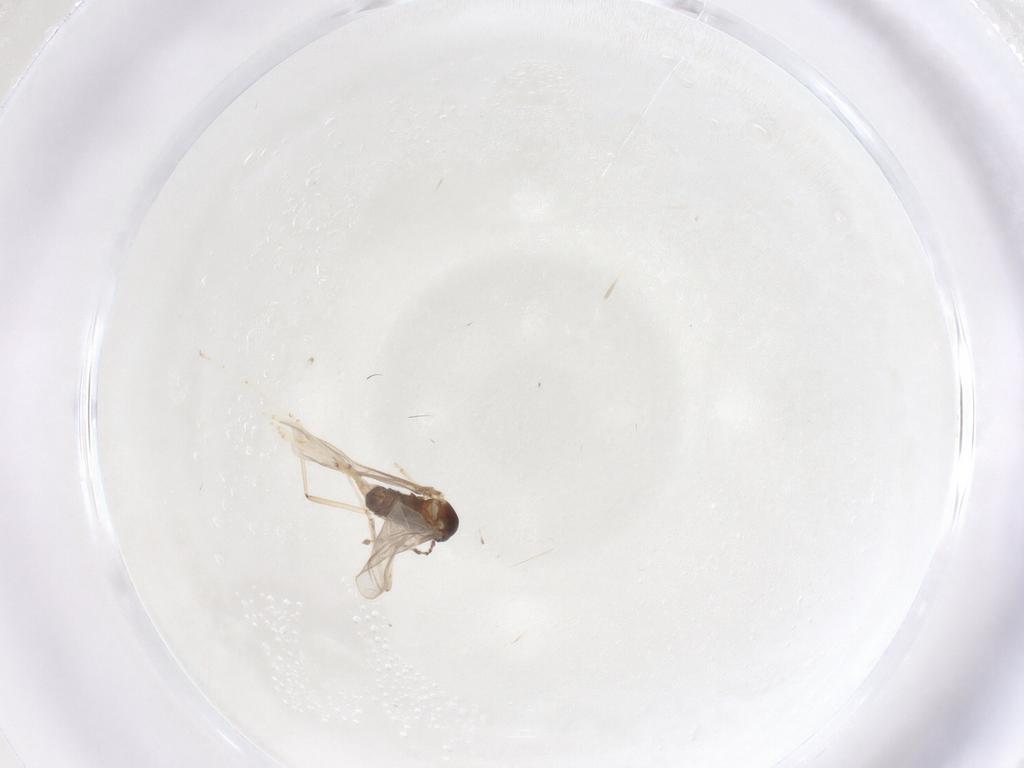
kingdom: Animalia
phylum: Arthropoda
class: Insecta
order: Diptera
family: Cecidomyiidae
